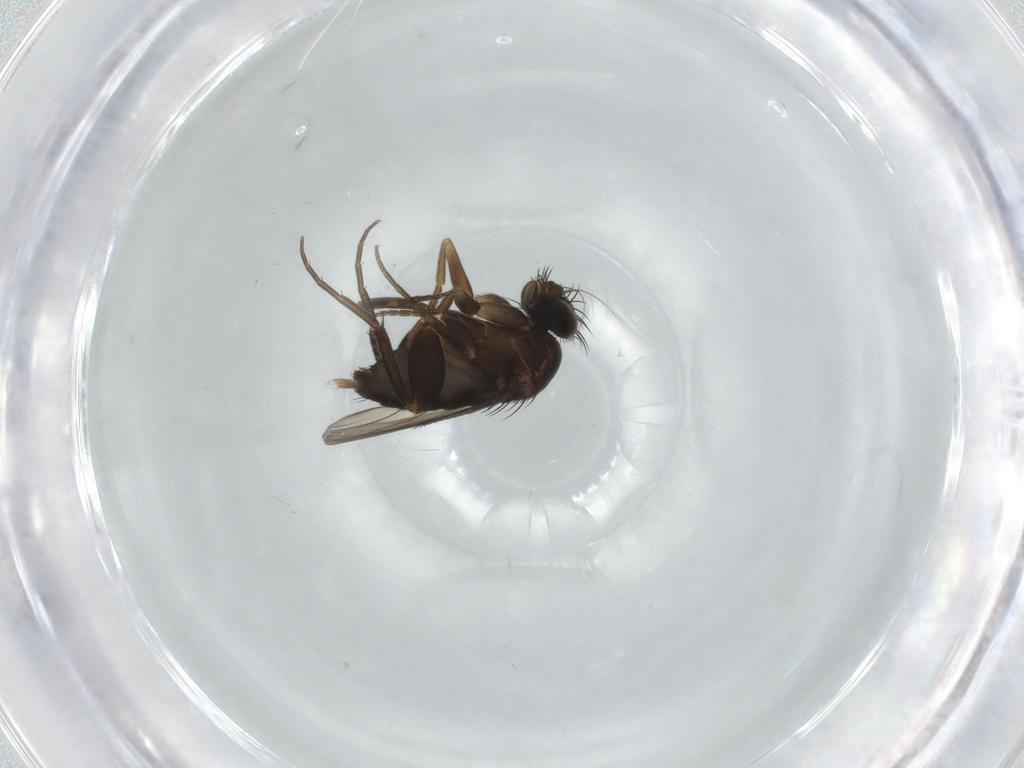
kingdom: Animalia
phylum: Arthropoda
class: Insecta
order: Diptera
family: Phoridae
